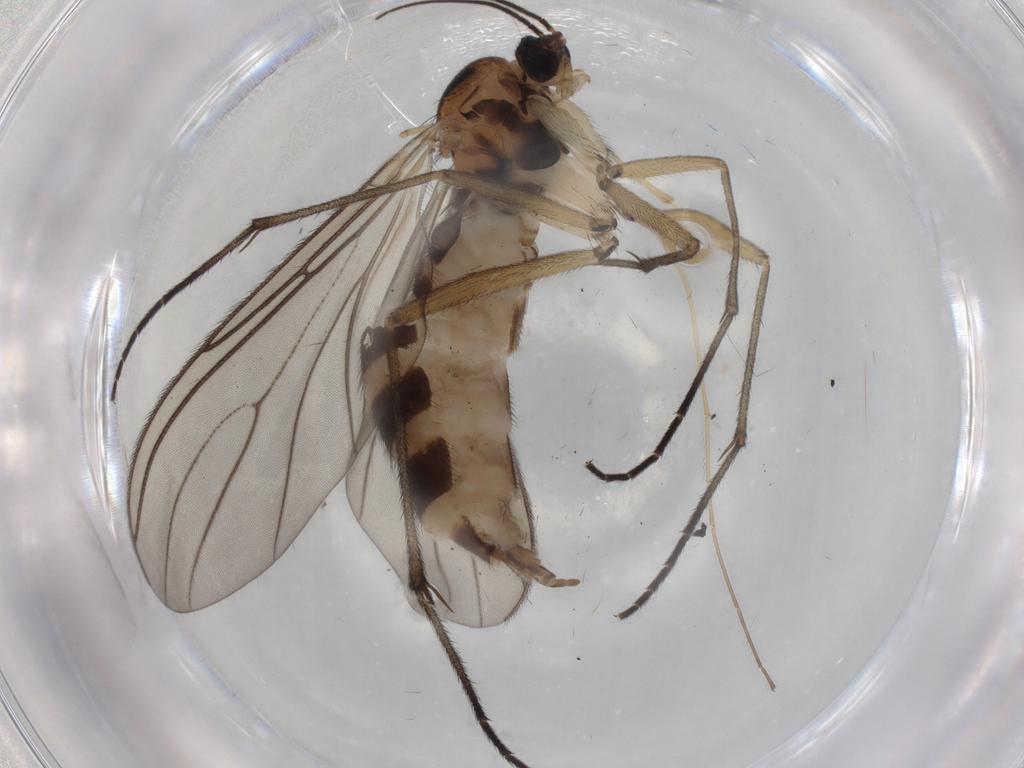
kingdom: Animalia
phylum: Arthropoda
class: Insecta
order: Diptera
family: Sciaridae
